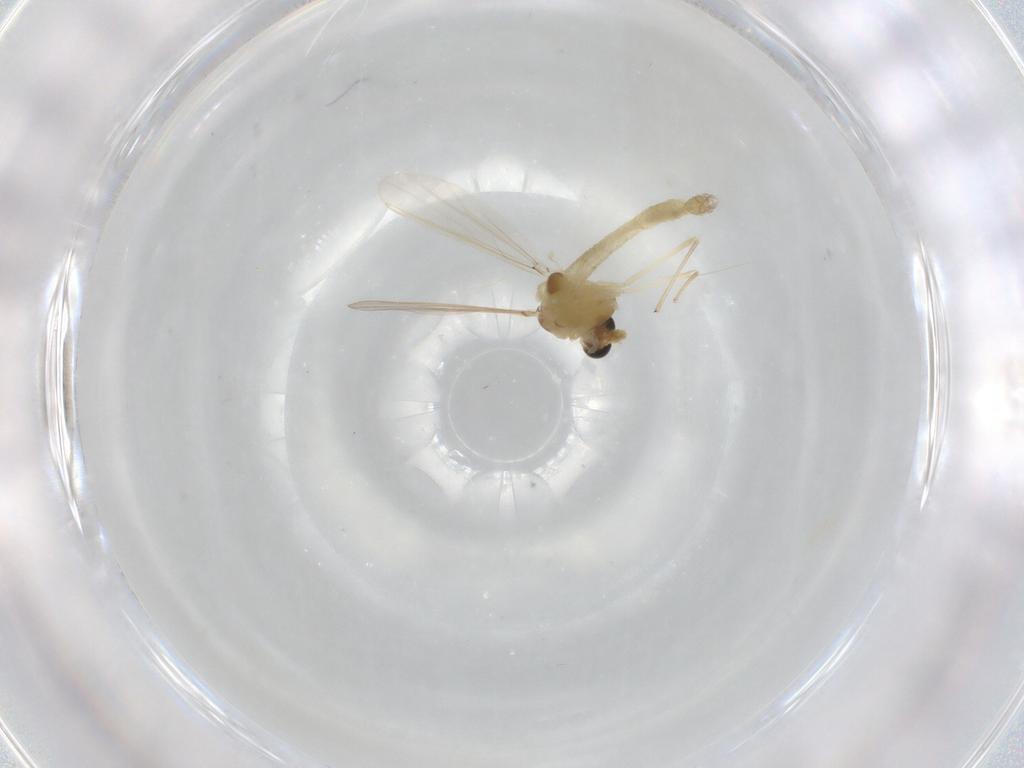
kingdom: Animalia
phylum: Arthropoda
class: Insecta
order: Diptera
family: Chironomidae
